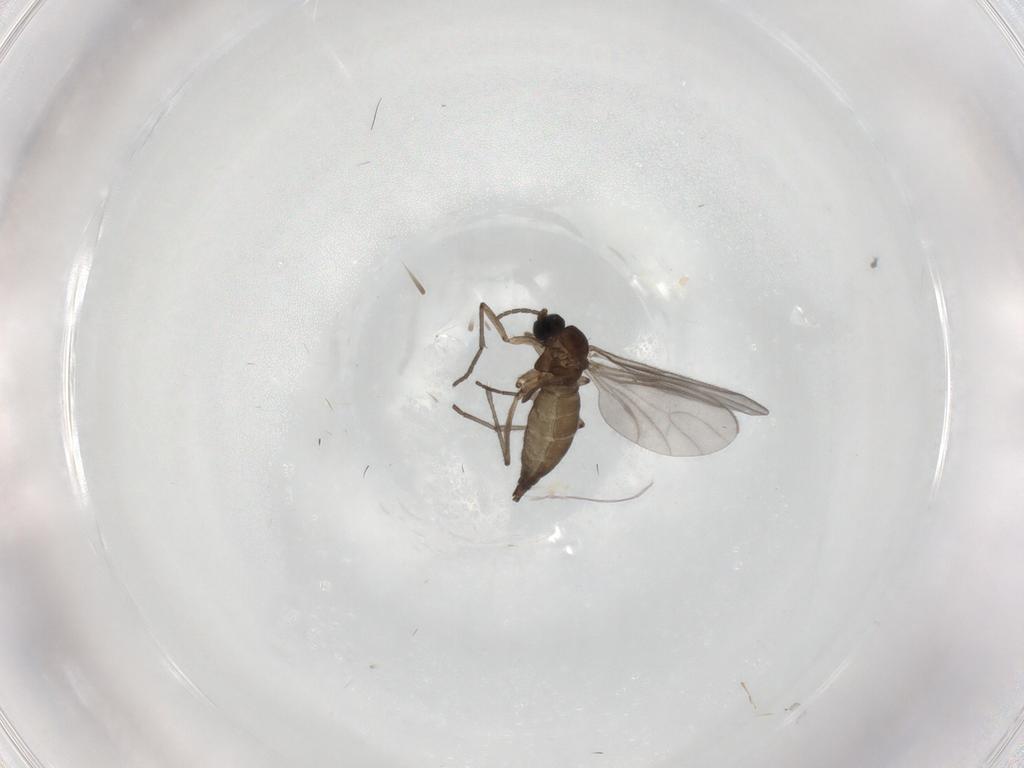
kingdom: Animalia
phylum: Arthropoda
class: Insecta
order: Diptera
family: Sciaridae
